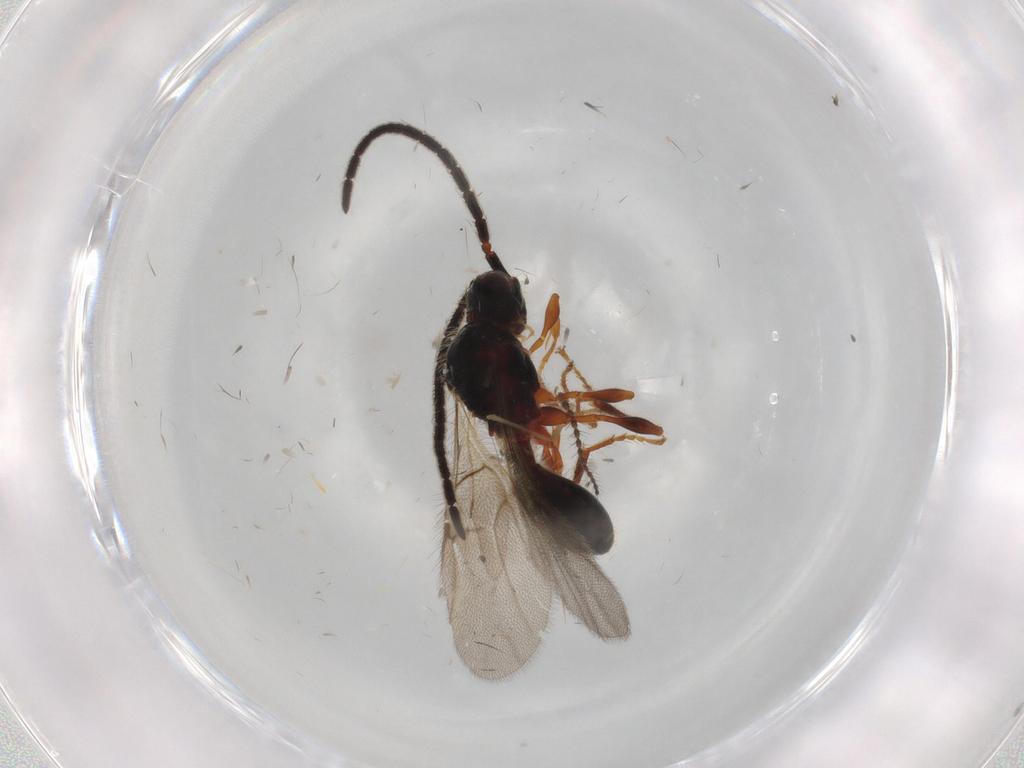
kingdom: Animalia
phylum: Arthropoda
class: Insecta
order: Hymenoptera
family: Diapriidae
